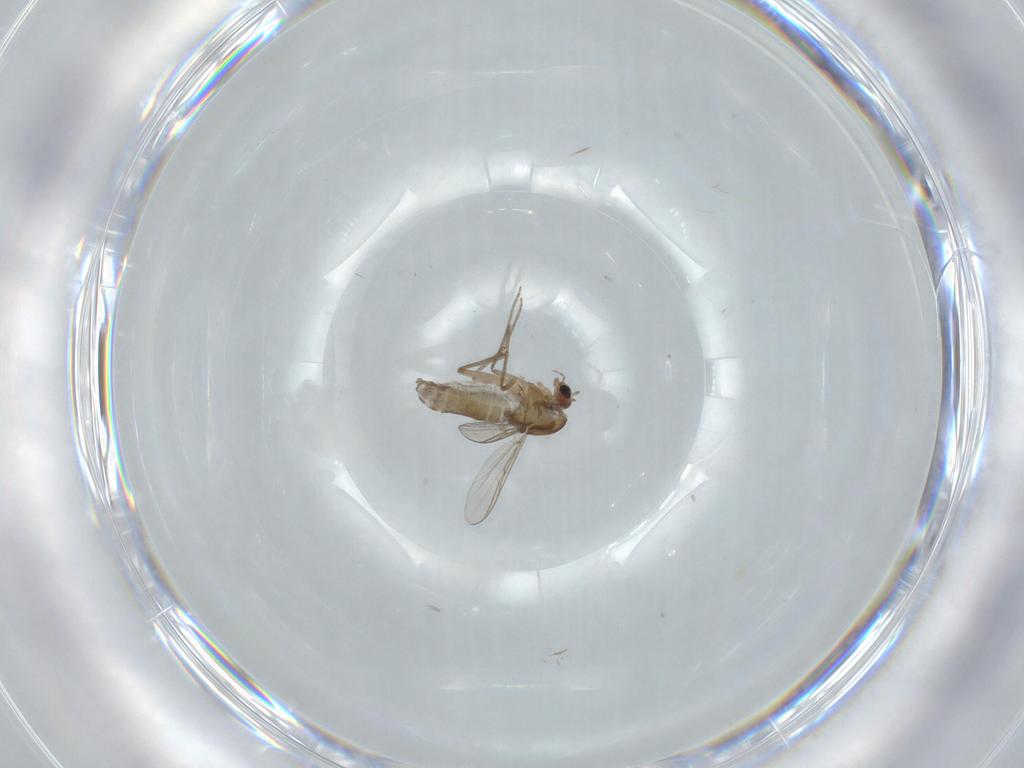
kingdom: Animalia
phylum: Arthropoda
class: Insecta
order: Diptera
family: Chironomidae
